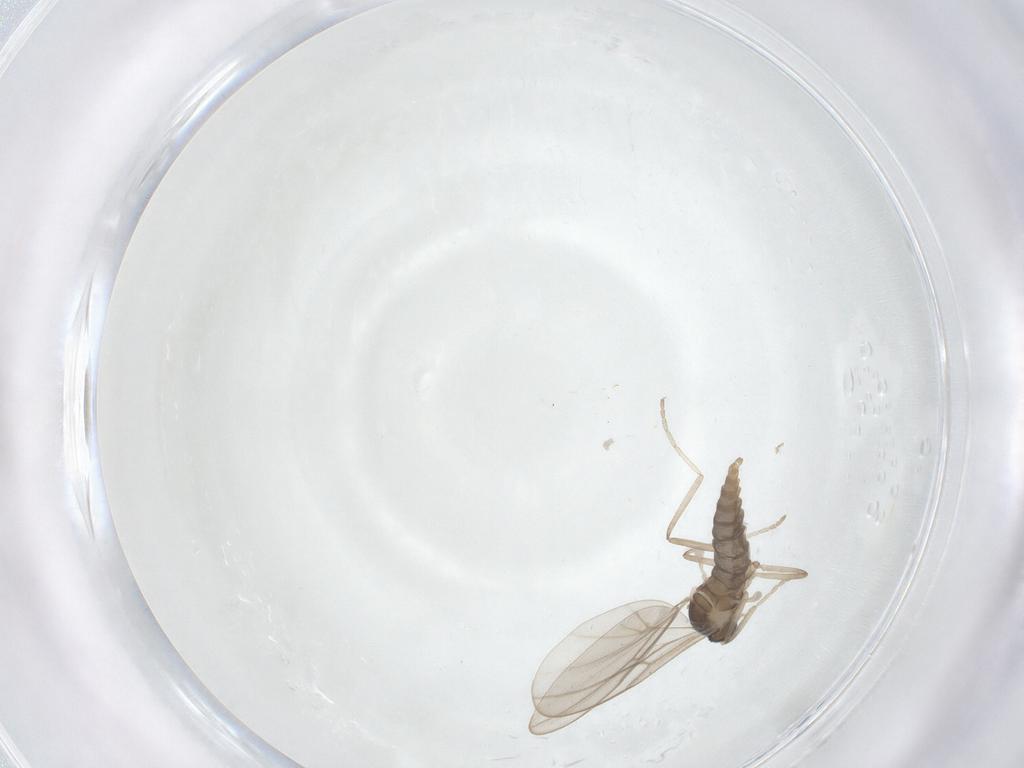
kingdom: Animalia
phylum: Arthropoda
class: Insecta
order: Diptera
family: Cecidomyiidae
